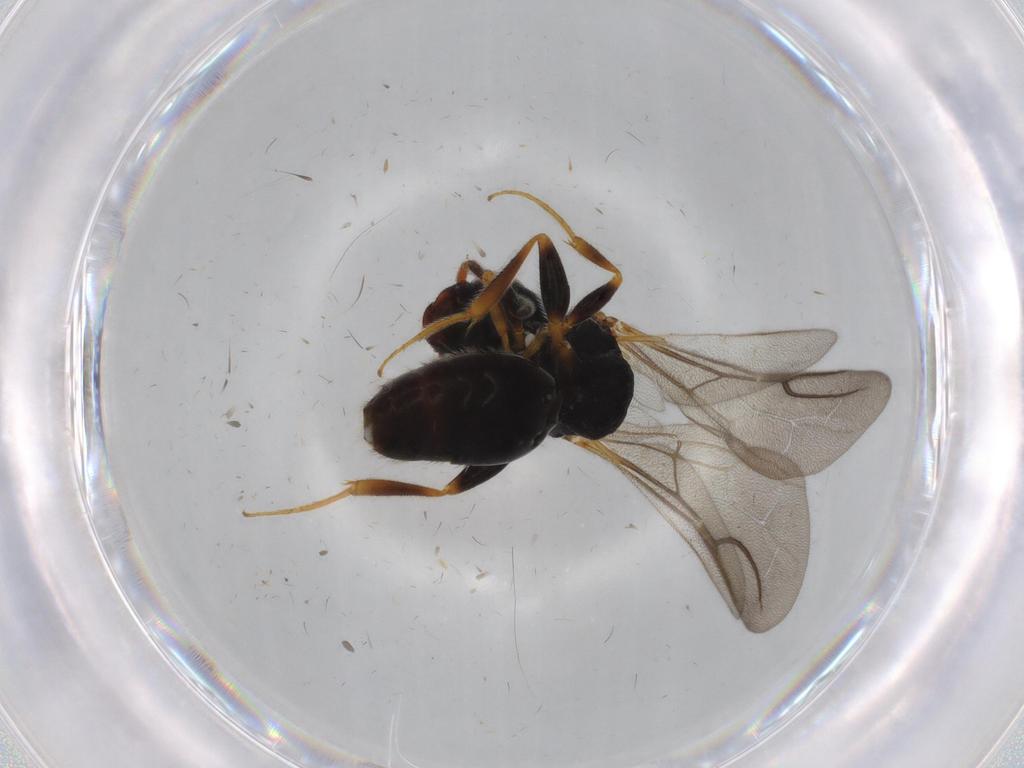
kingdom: Animalia
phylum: Arthropoda
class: Insecta
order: Hymenoptera
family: Bethylidae
